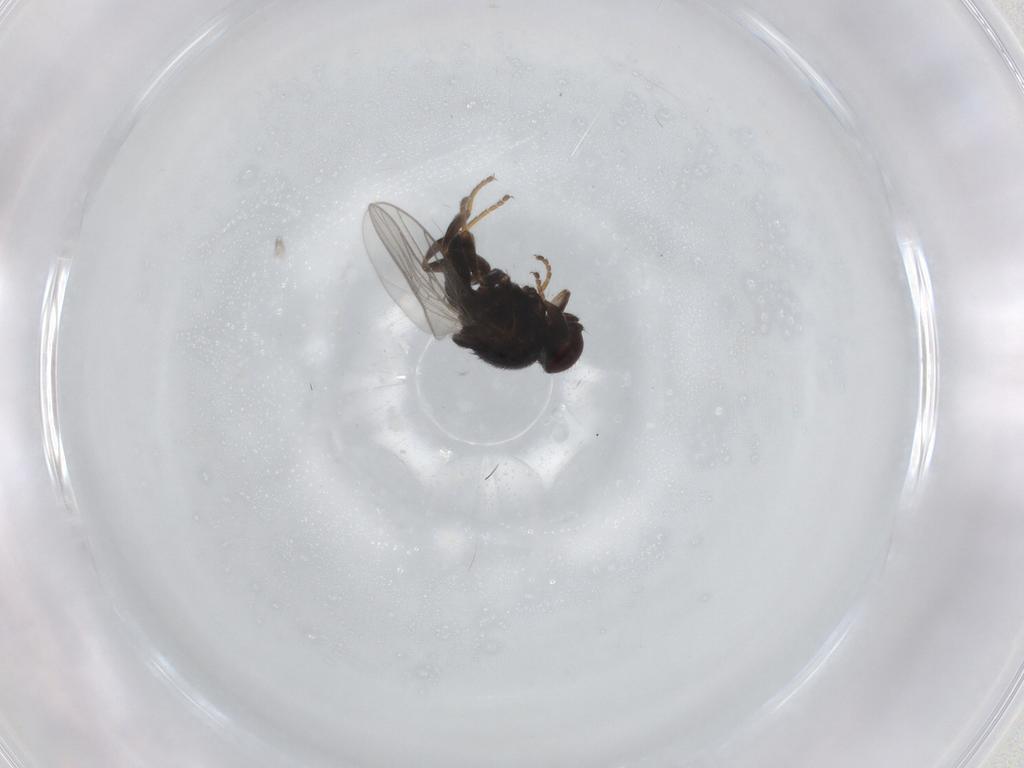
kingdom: Animalia
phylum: Arthropoda
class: Insecta
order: Diptera
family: Chloropidae
